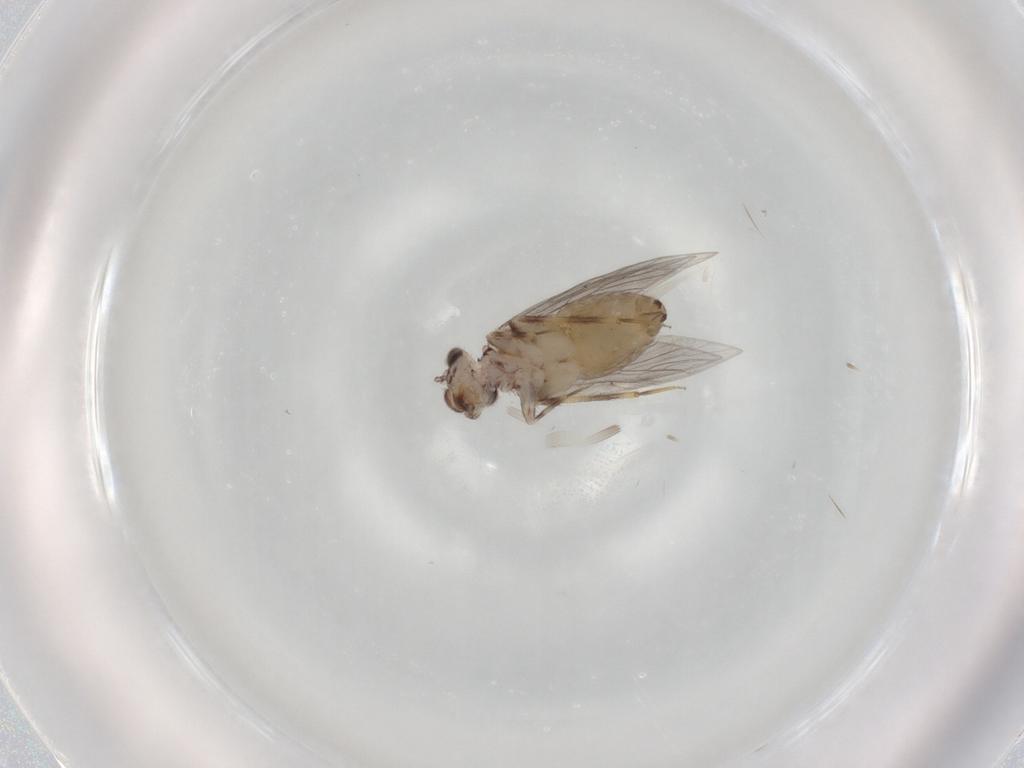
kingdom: Animalia
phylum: Arthropoda
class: Insecta
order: Psocodea
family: Lepidopsocidae
